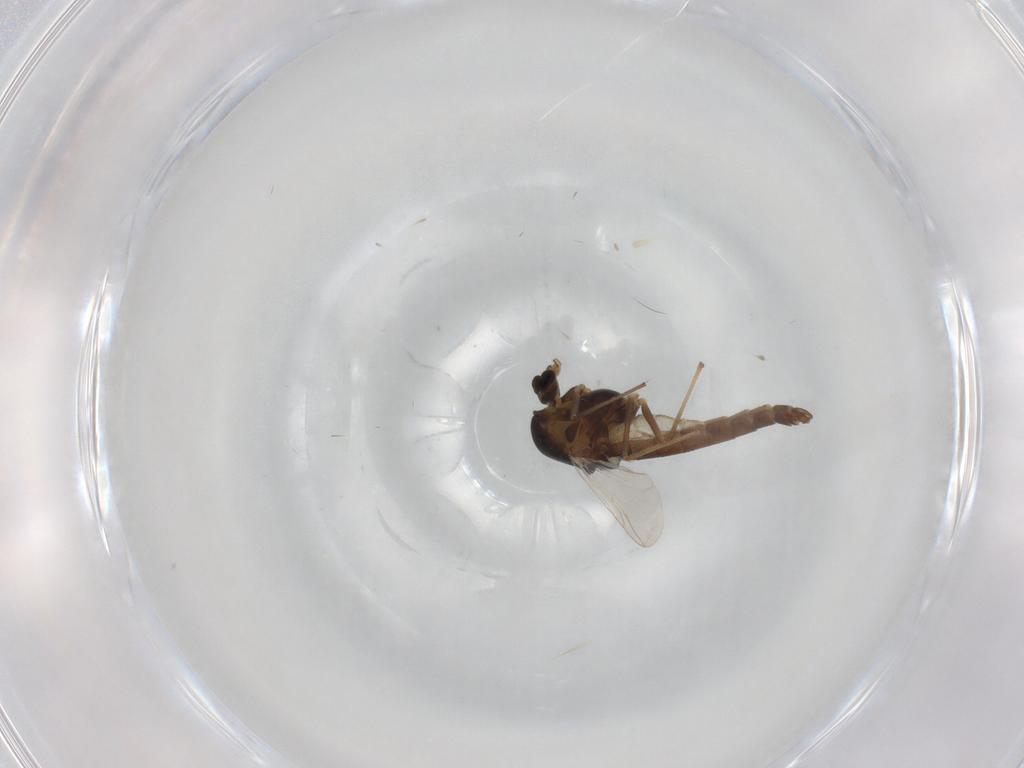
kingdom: Animalia
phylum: Arthropoda
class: Insecta
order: Diptera
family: Chironomidae
